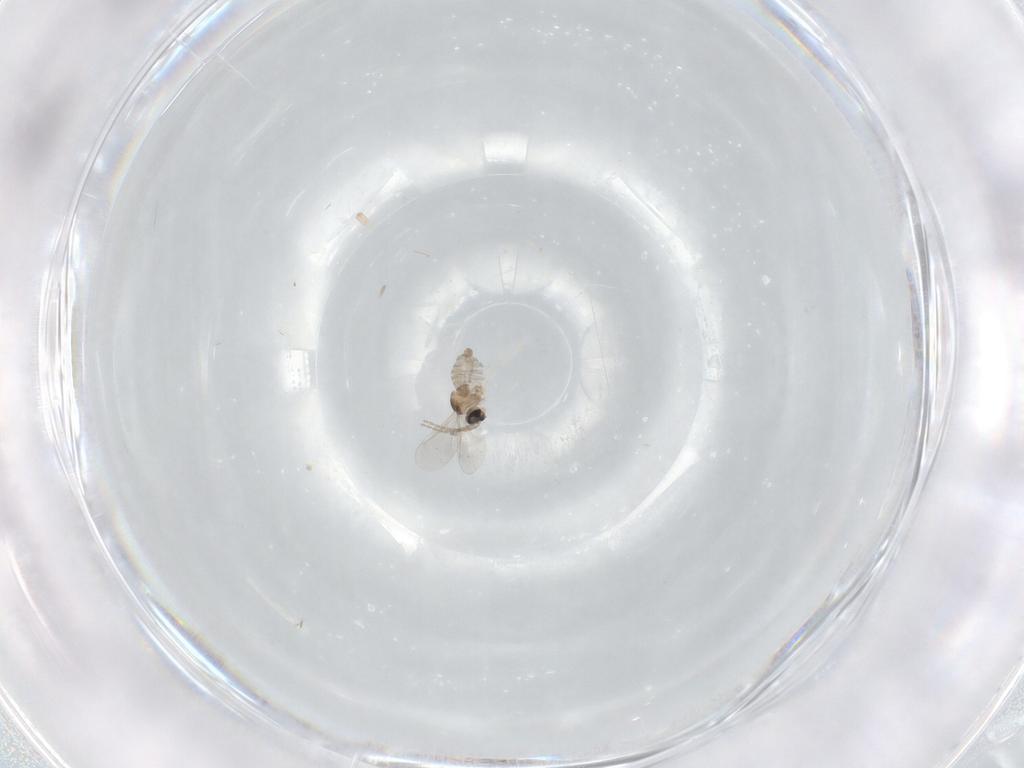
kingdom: Animalia
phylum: Arthropoda
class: Insecta
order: Diptera
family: Cecidomyiidae
